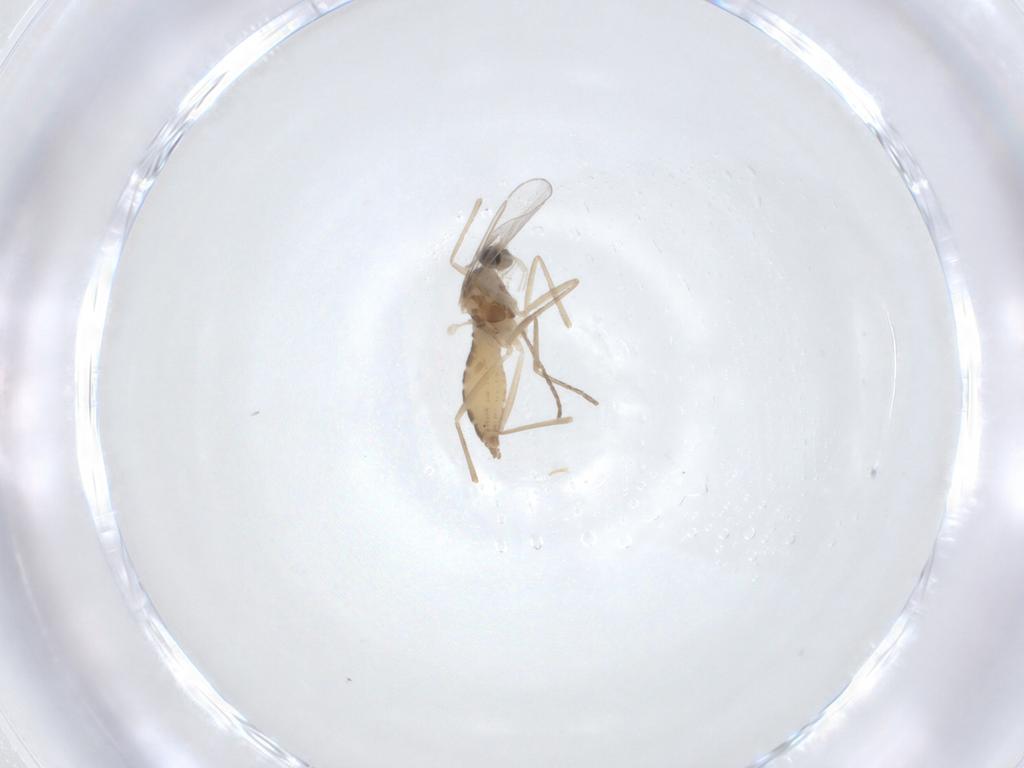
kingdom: Animalia
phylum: Arthropoda
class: Insecta
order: Diptera
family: Cecidomyiidae
